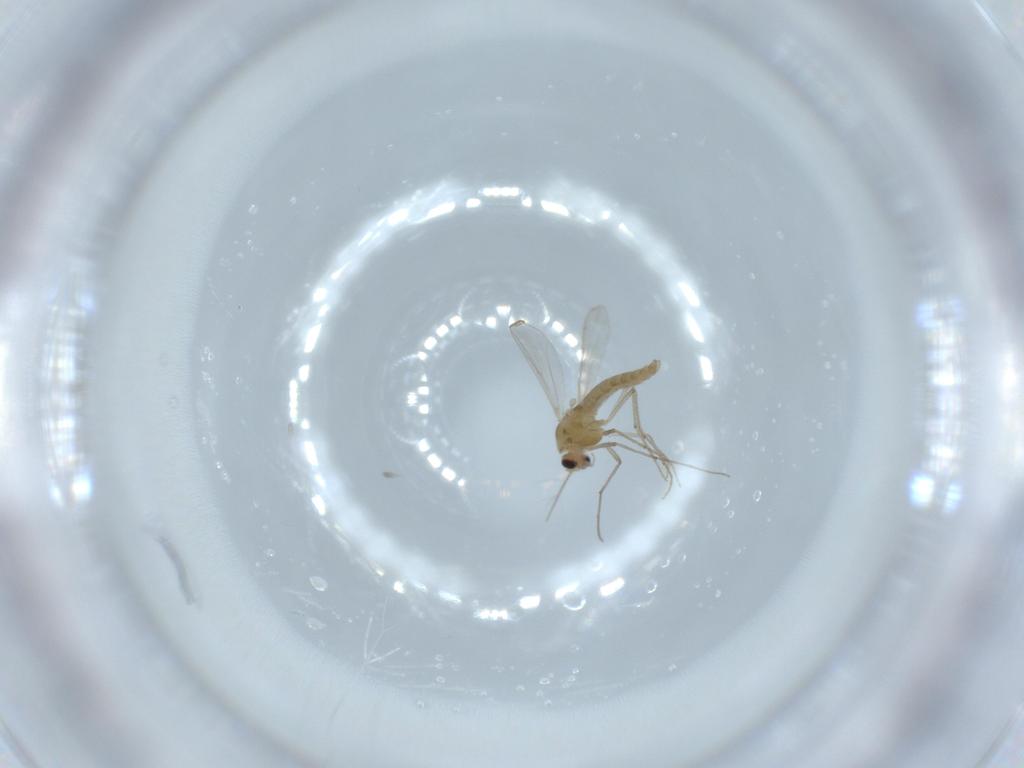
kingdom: Animalia
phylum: Arthropoda
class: Insecta
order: Diptera
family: Chironomidae
